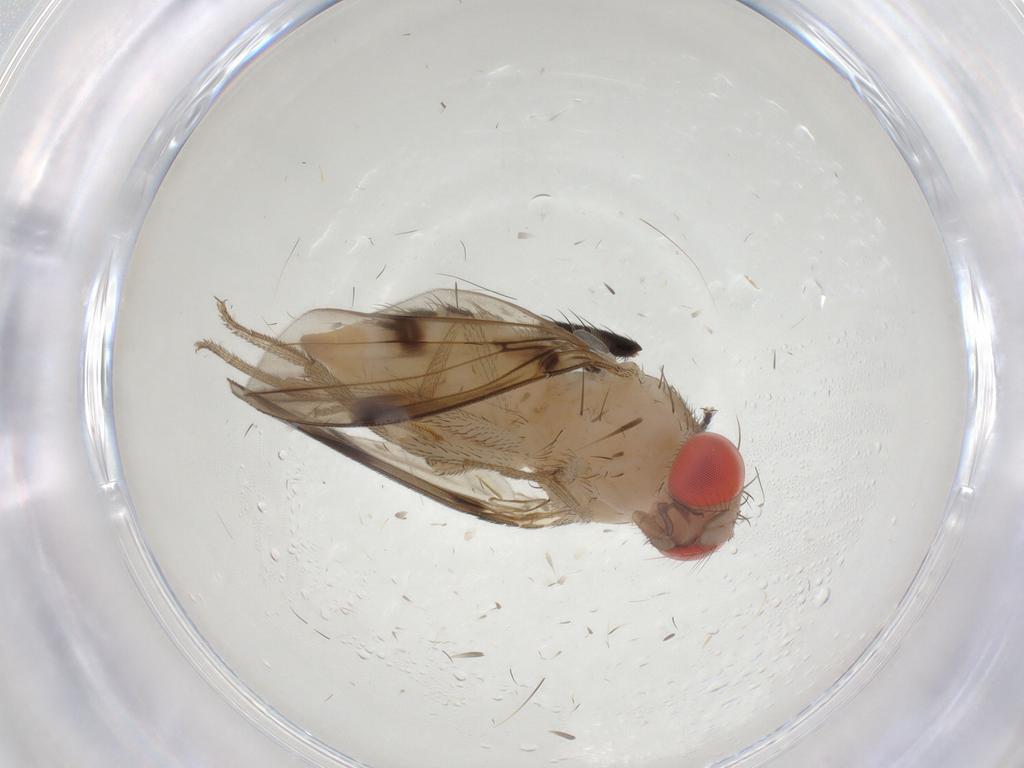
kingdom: Animalia
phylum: Arthropoda
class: Insecta
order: Diptera
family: Drosophilidae
